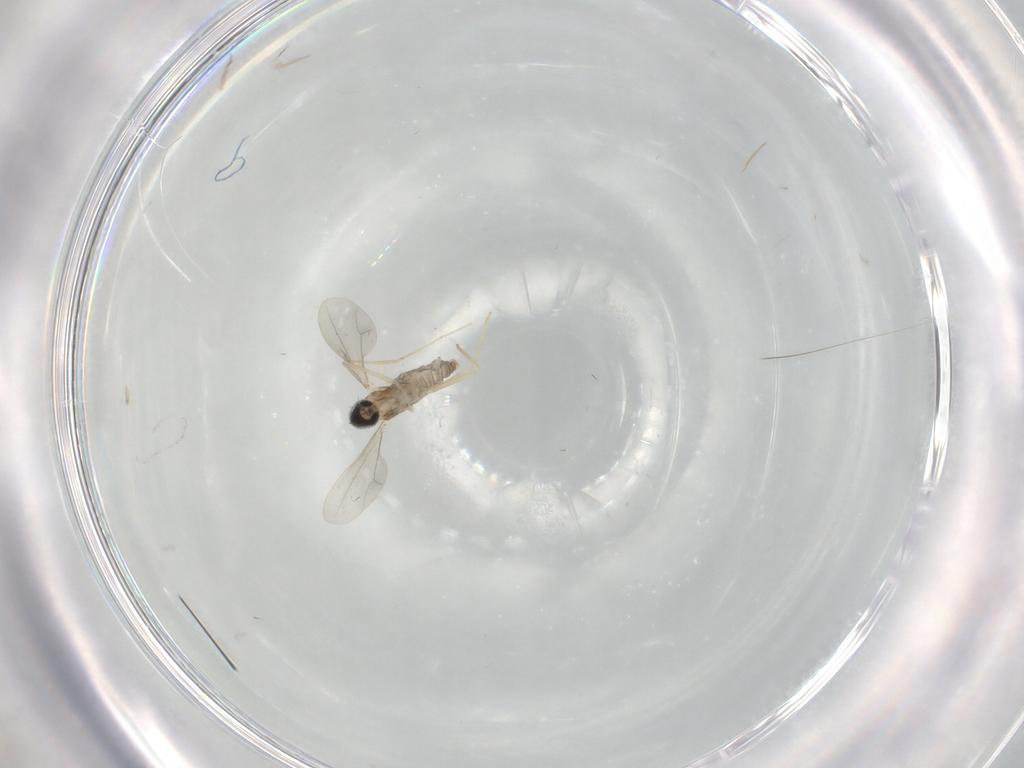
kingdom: Animalia
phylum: Arthropoda
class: Insecta
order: Diptera
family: Cecidomyiidae
